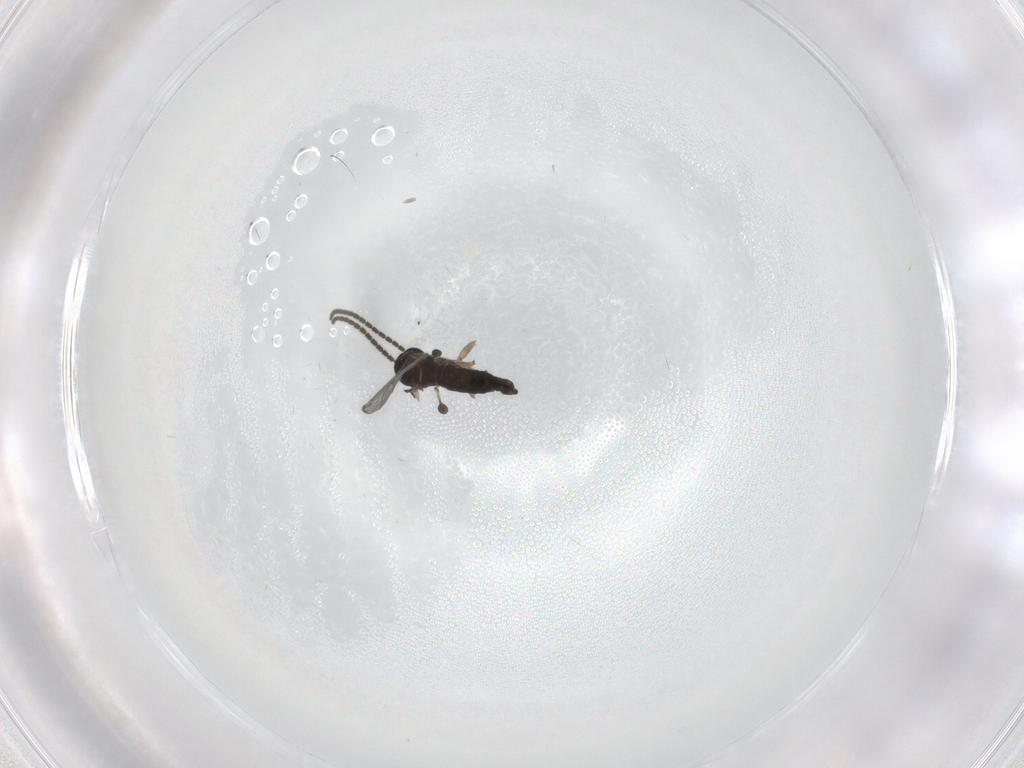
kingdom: Animalia
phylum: Arthropoda
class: Insecta
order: Diptera
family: Sciaridae
